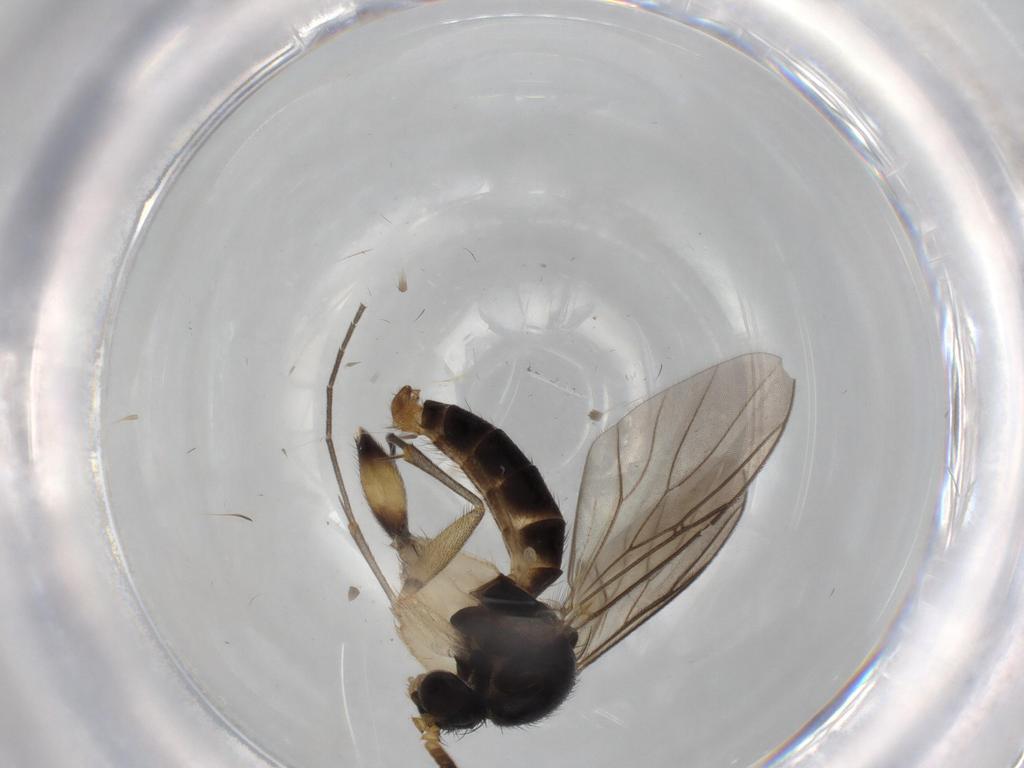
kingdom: Animalia
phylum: Arthropoda
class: Insecta
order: Diptera
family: Phoridae
